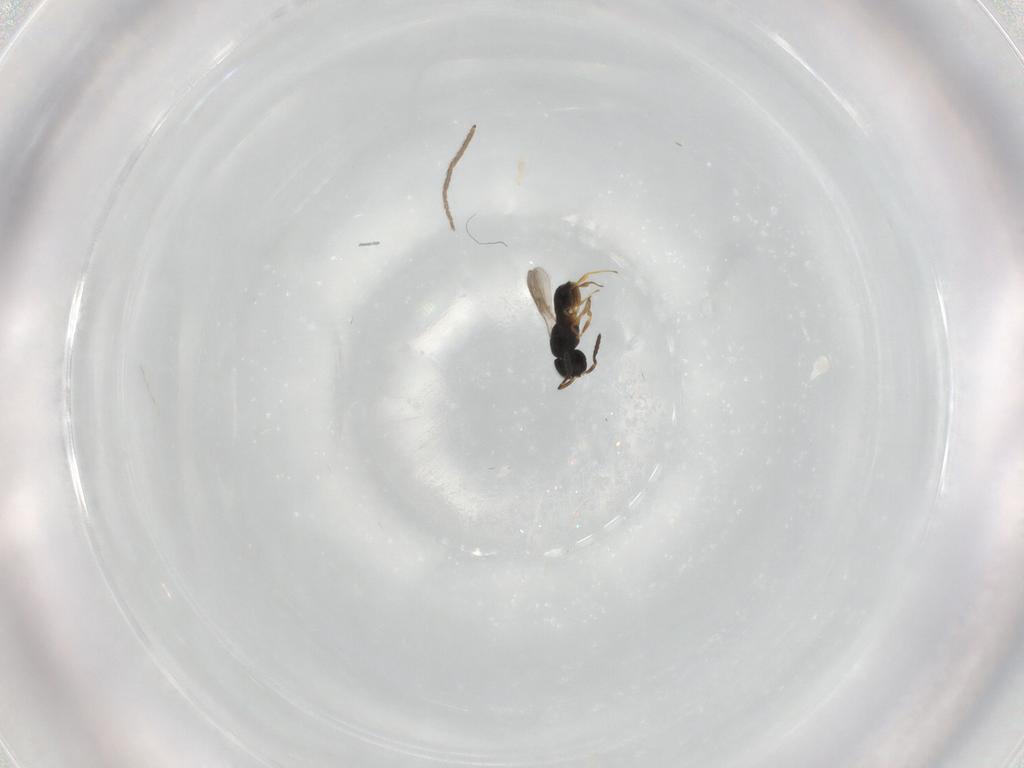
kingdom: Animalia
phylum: Arthropoda
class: Insecta
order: Hymenoptera
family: Scelionidae
